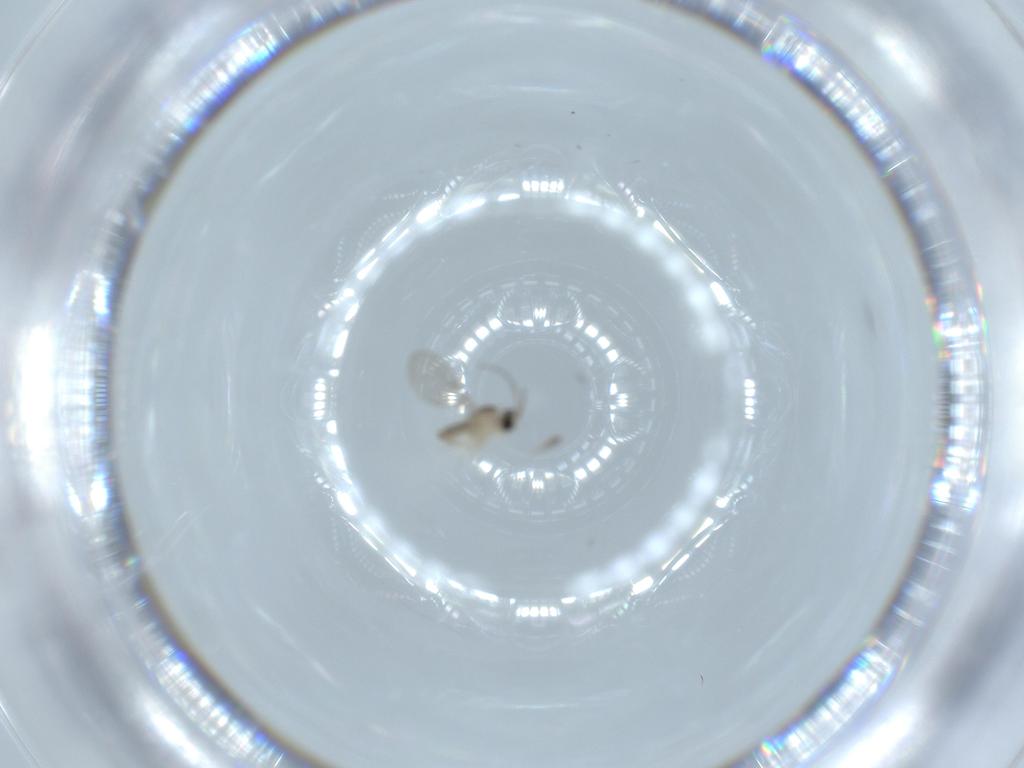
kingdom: Animalia
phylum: Arthropoda
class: Insecta
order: Diptera
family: Cecidomyiidae
